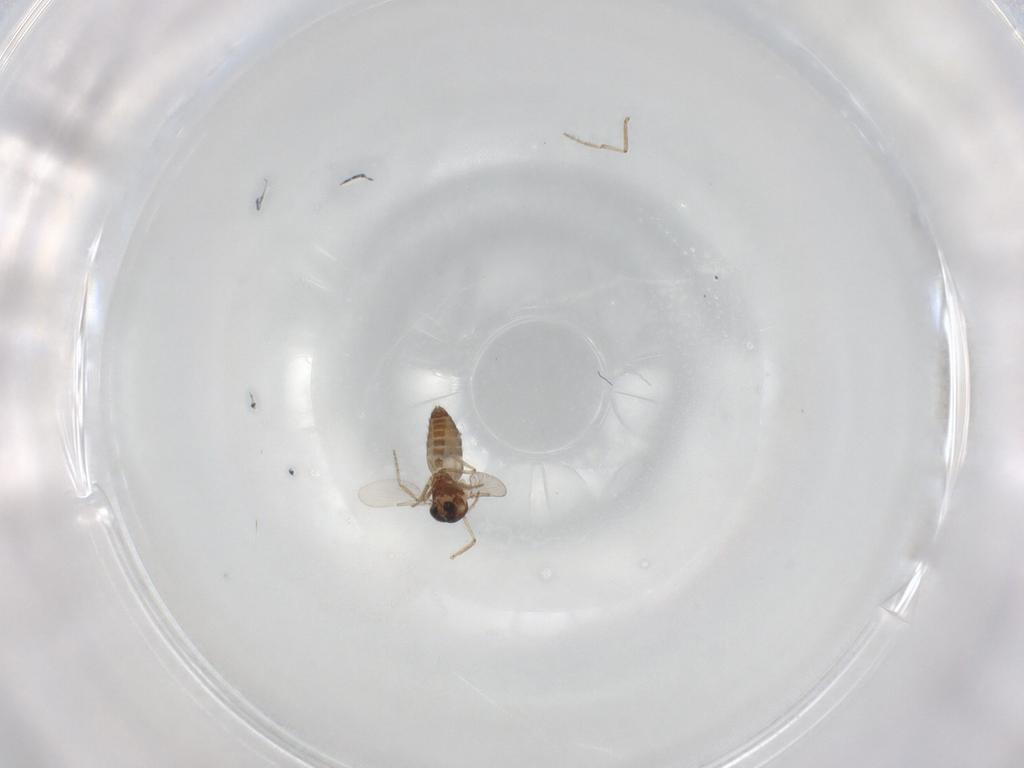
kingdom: Animalia
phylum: Arthropoda
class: Insecta
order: Diptera
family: Ceratopogonidae
